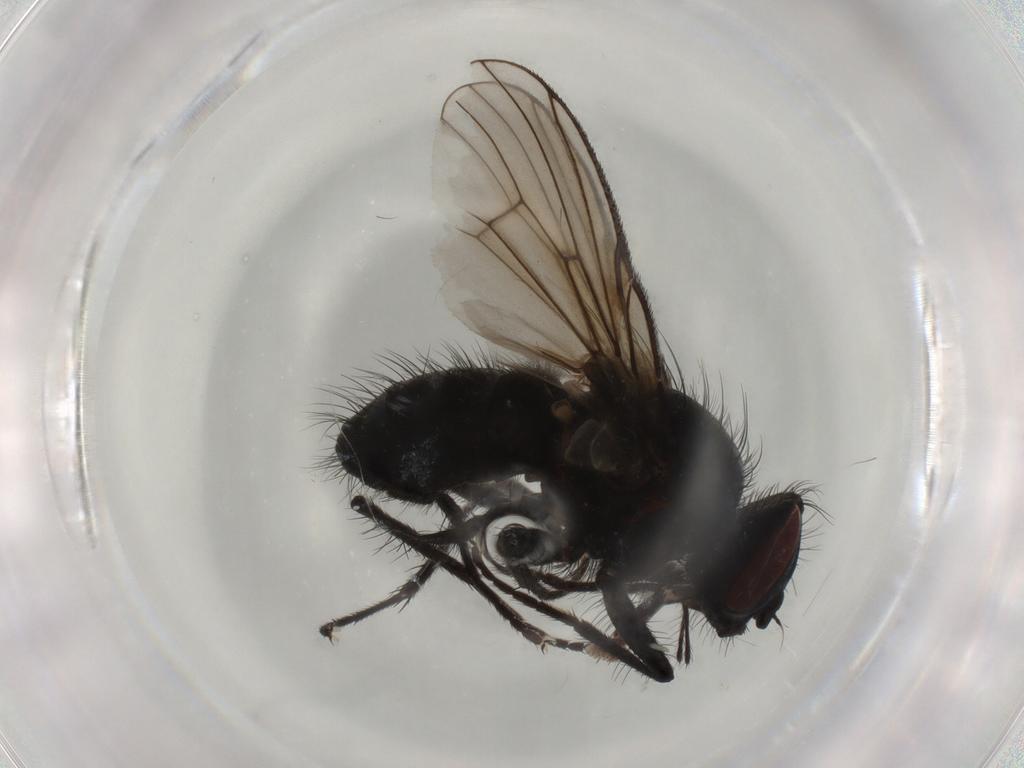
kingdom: Animalia
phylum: Arthropoda
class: Insecta
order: Diptera
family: Muscidae
